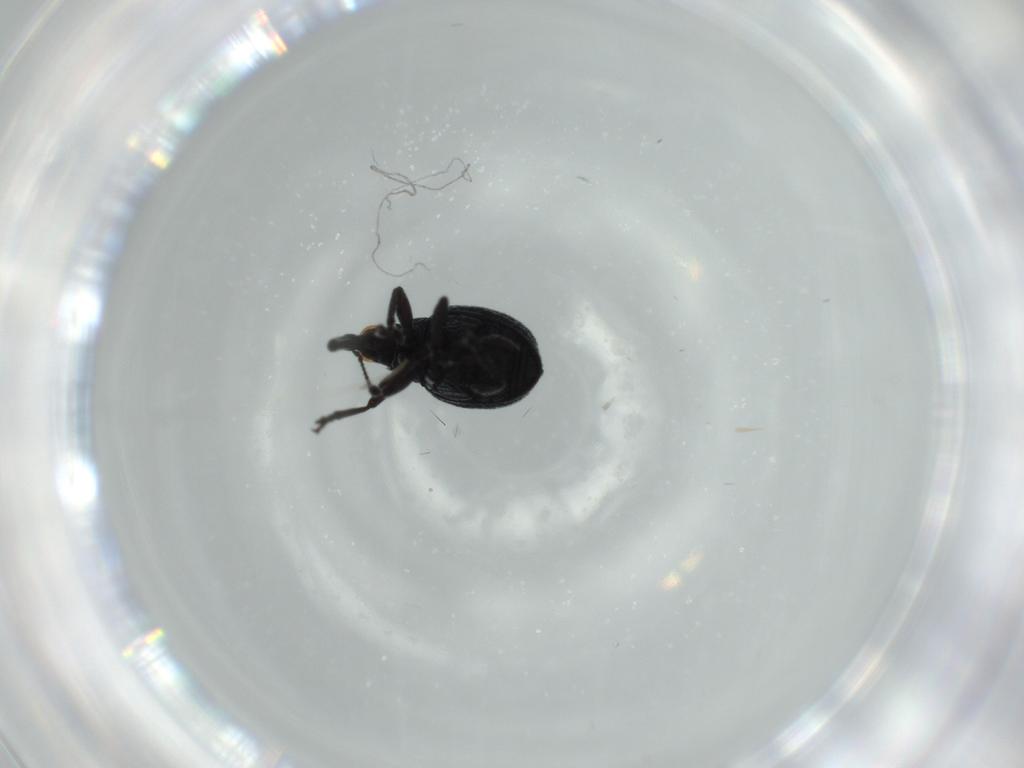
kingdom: Animalia
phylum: Arthropoda
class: Insecta
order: Coleoptera
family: Brentidae
